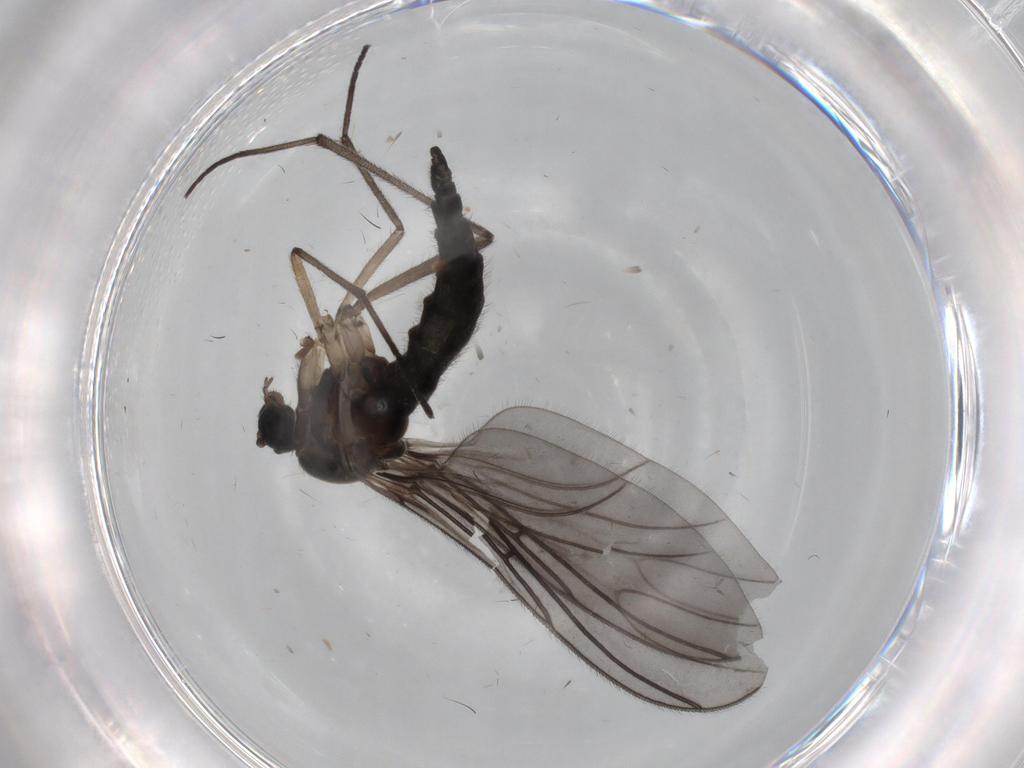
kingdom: Animalia
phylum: Arthropoda
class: Insecta
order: Diptera
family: Sciaridae
